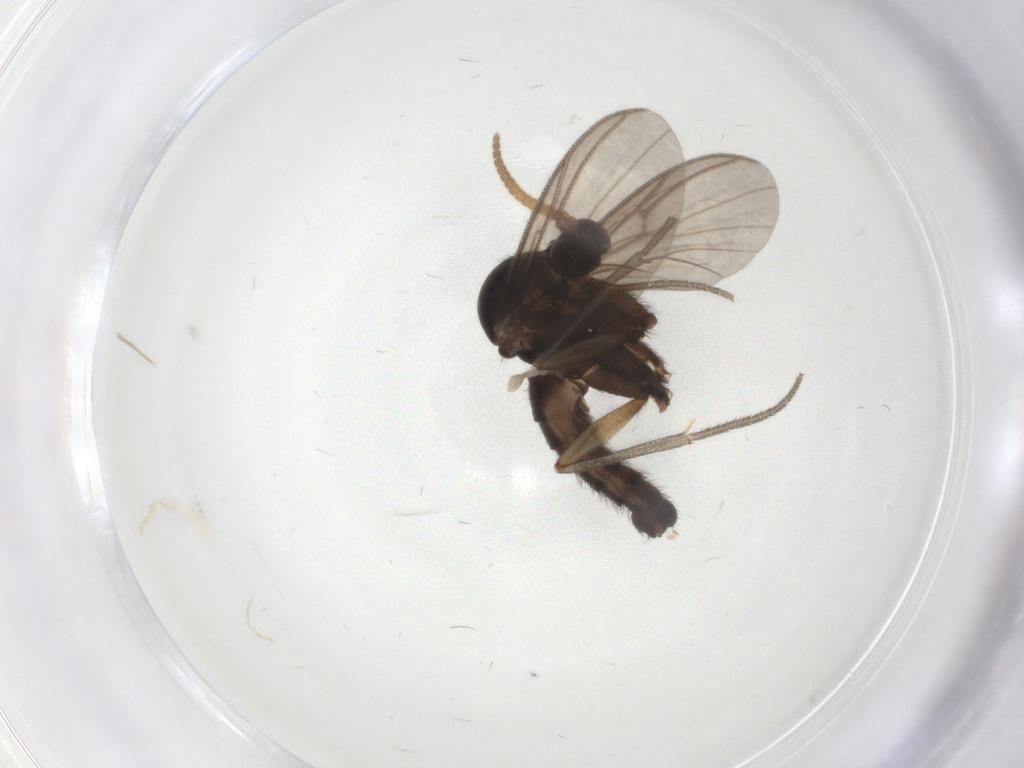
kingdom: Animalia
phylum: Arthropoda
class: Insecta
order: Diptera
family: Mycetophilidae
